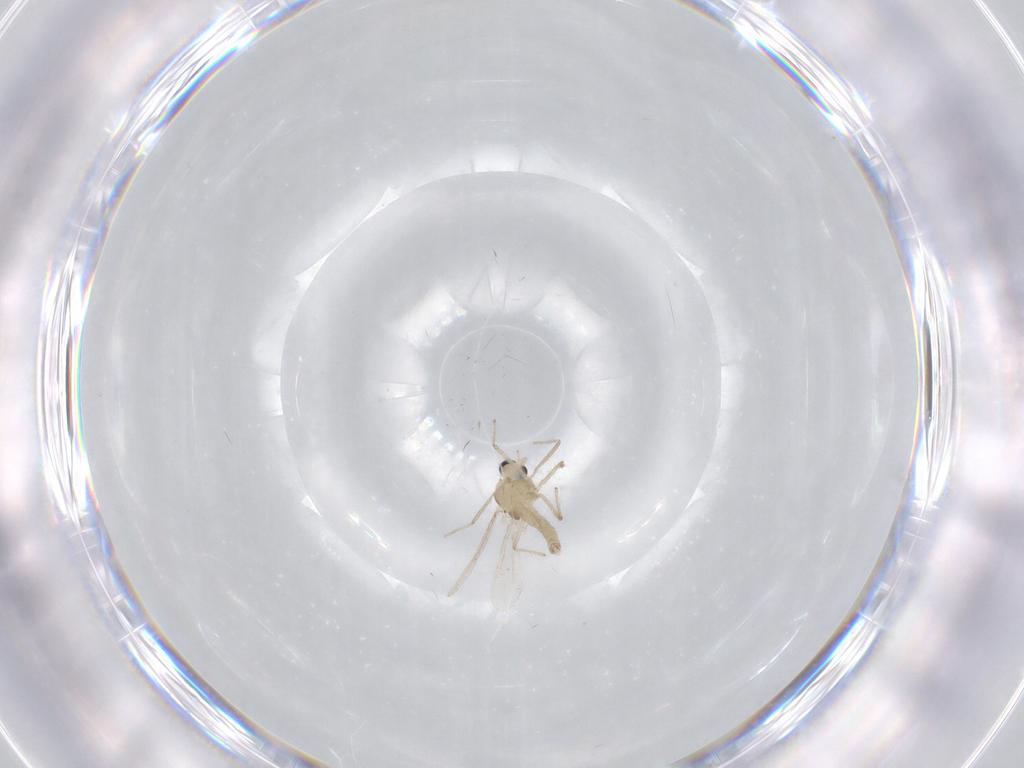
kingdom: Animalia
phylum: Arthropoda
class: Insecta
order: Diptera
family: Chironomidae
